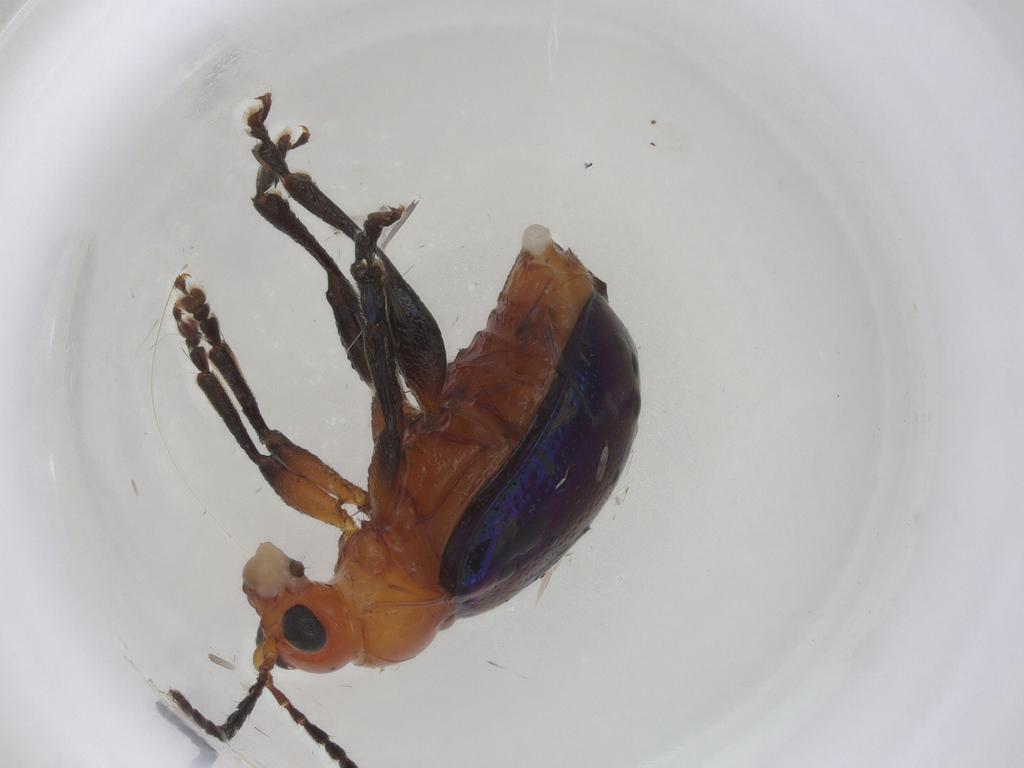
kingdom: Animalia
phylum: Arthropoda
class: Insecta
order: Coleoptera
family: Chrysomelidae
